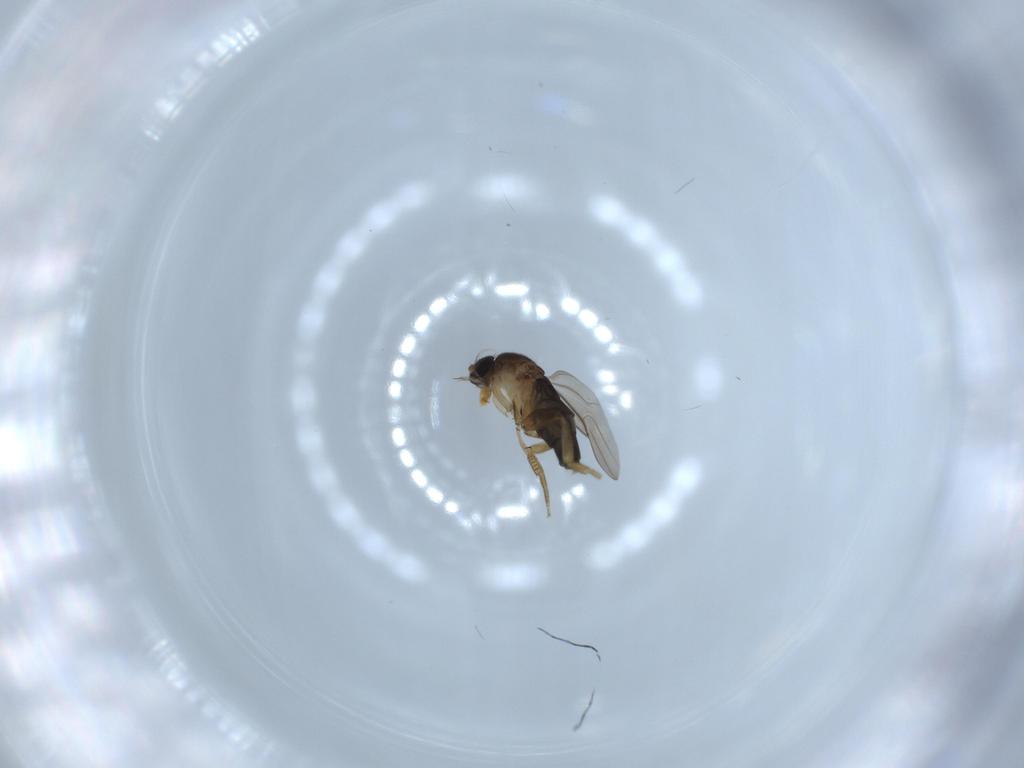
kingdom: Animalia
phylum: Arthropoda
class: Insecta
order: Diptera
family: Phoridae
